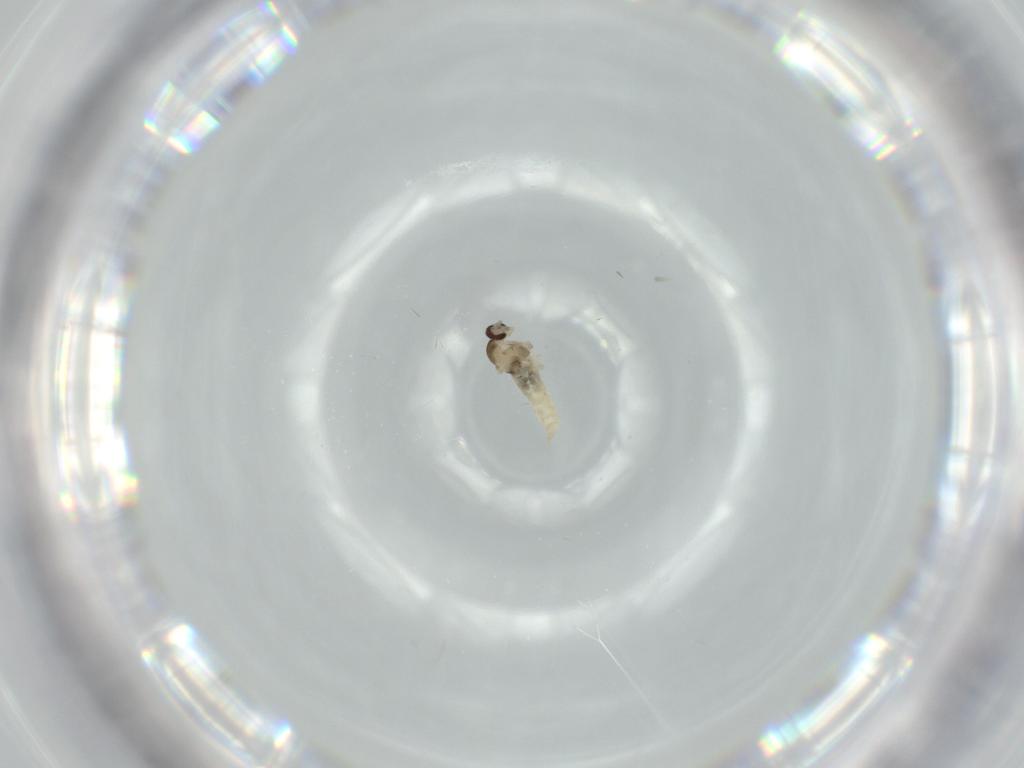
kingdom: Animalia
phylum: Arthropoda
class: Insecta
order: Diptera
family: Cecidomyiidae
